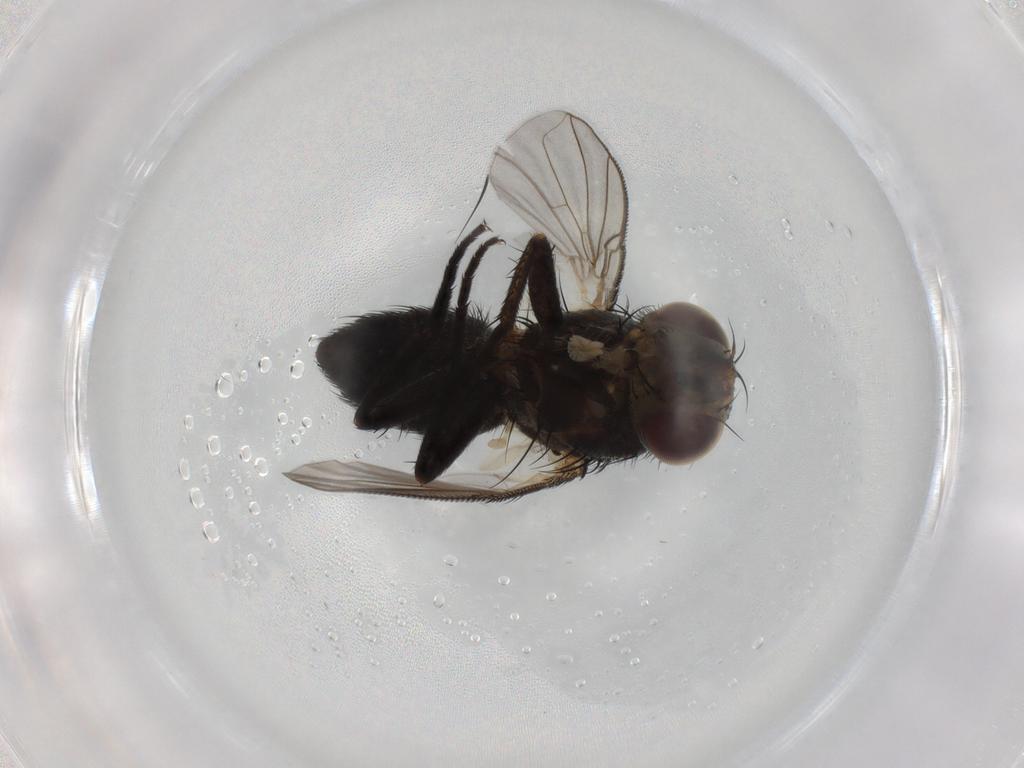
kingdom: Animalia
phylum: Arthropoda
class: Insecta
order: Diptera
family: Tachinidae
